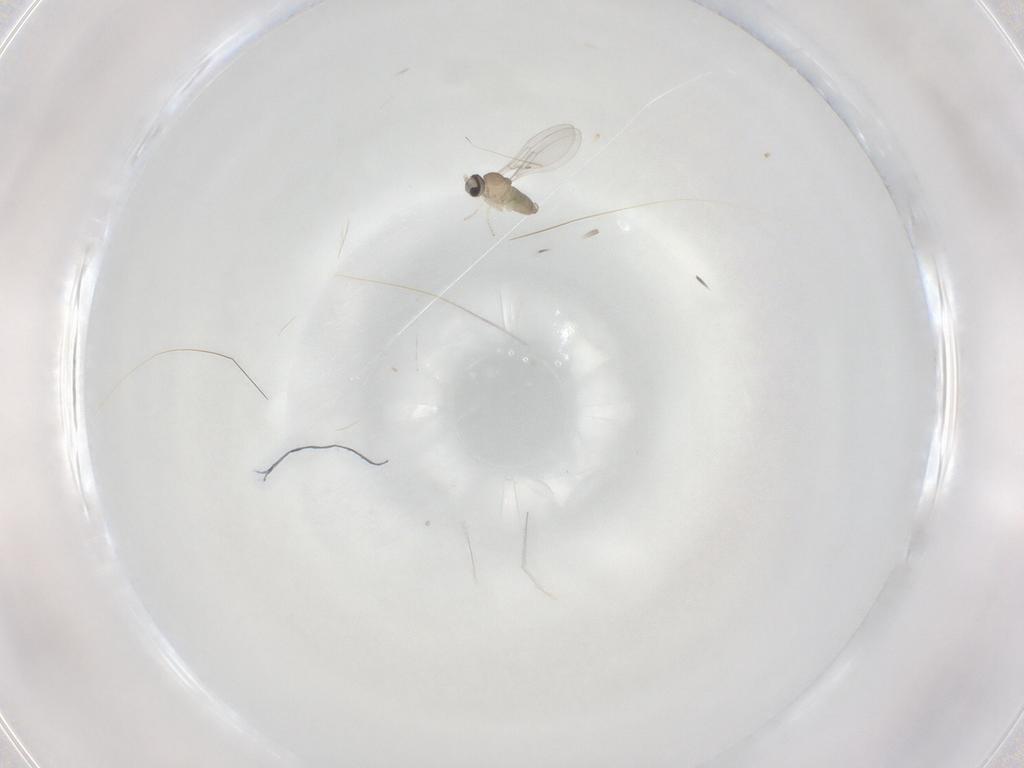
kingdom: Animalia
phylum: Arthropoda
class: Insecta
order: Diptera
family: Cecidomyiidae
